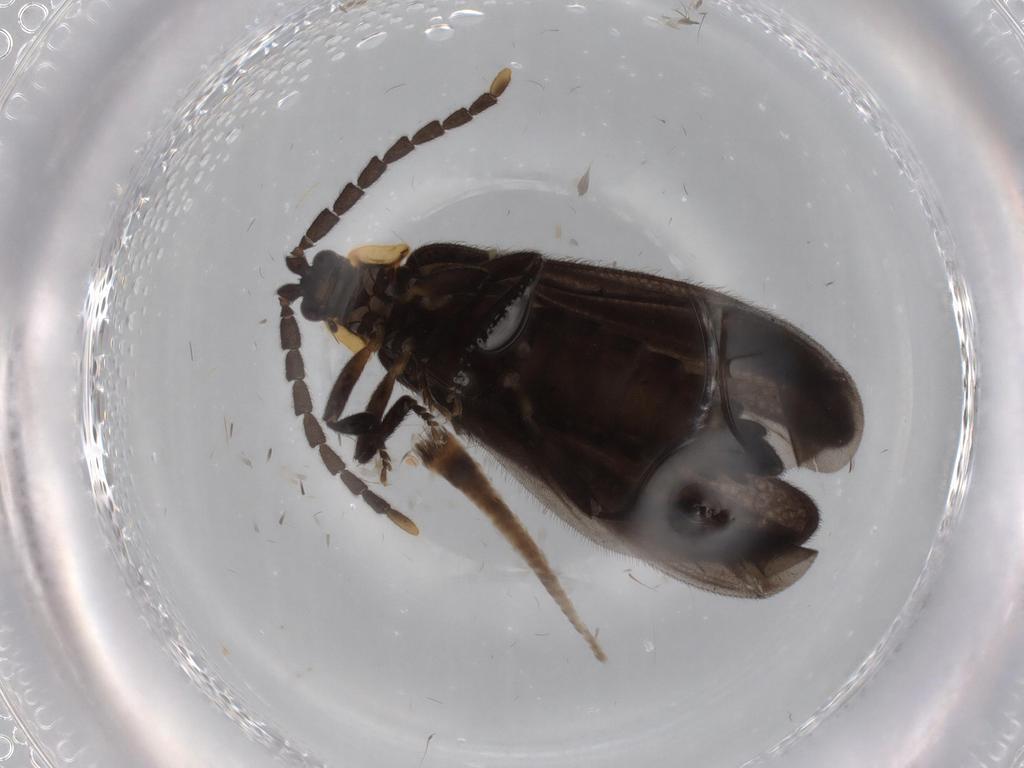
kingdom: Animalia
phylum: Arthropoda
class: Insecta
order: Coleoptera
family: Lycidae
